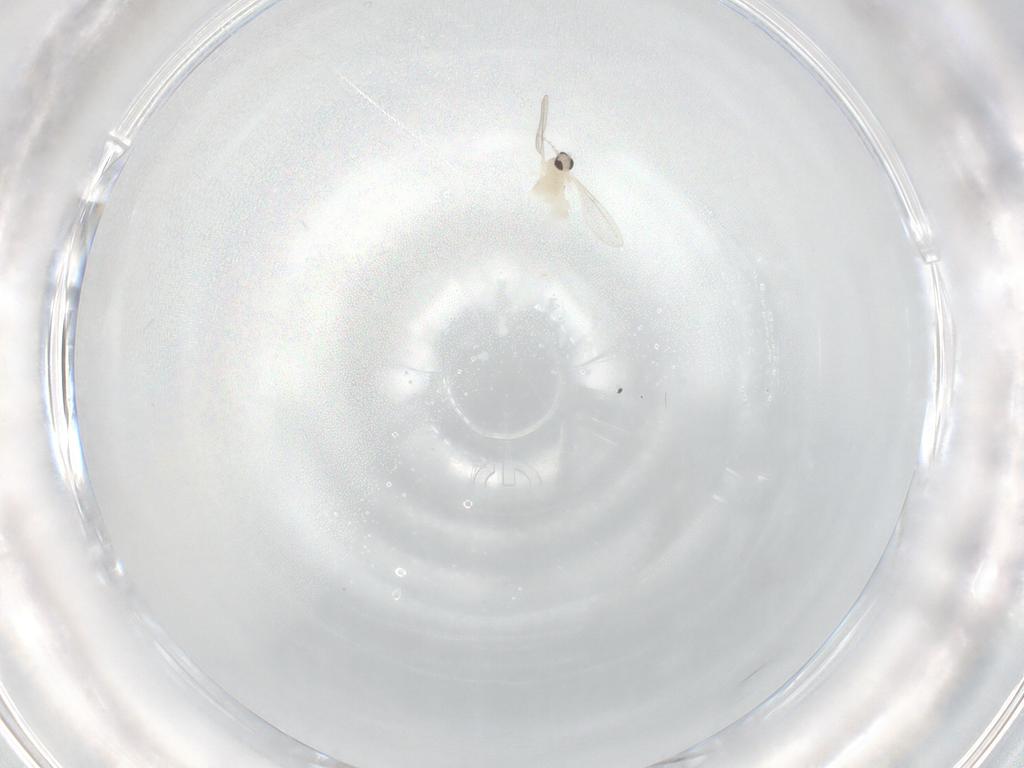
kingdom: Animalia
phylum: Arthropoda
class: Insecta
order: Diptera
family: Cecidomyiidae
